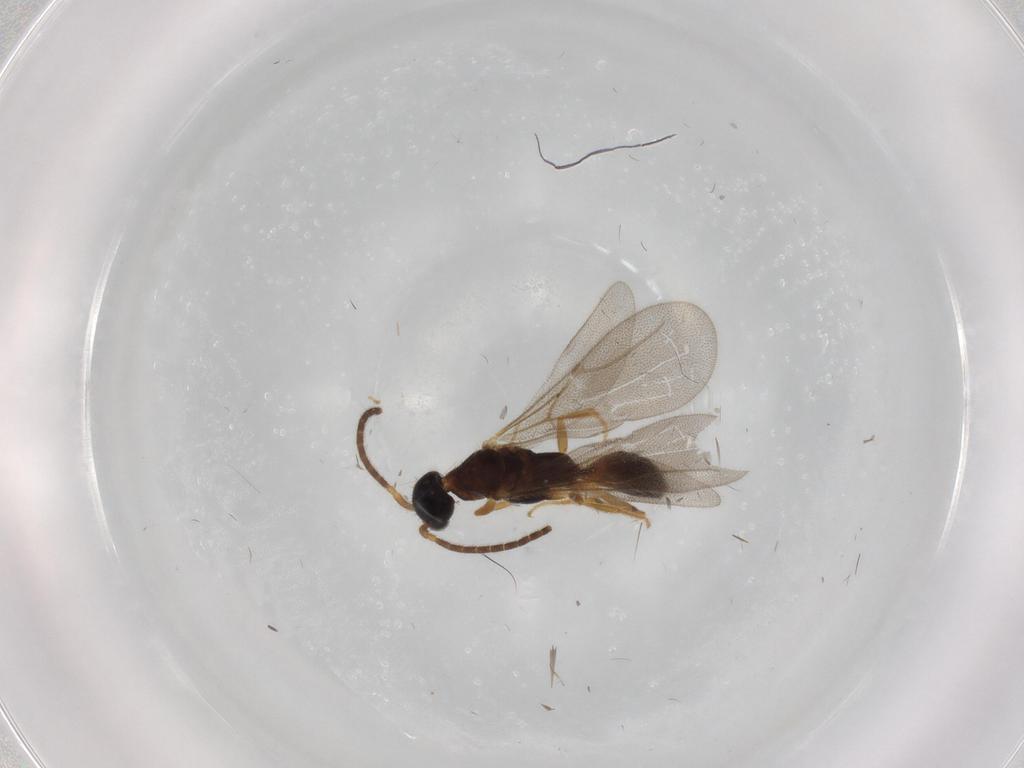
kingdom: Animalia
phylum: Arthropoda
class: Insecta
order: Hymenoptera
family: Bethylidae
